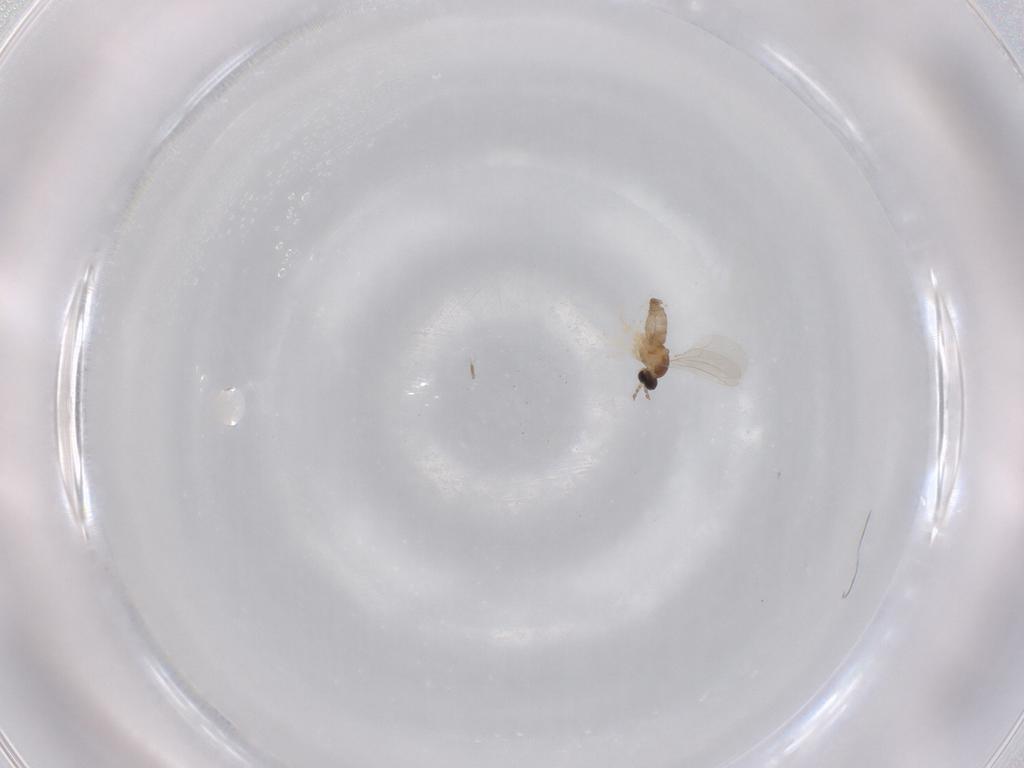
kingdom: Animalia
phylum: Arthropoda
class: Insecta
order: Diptera
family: Cecidomyiidae
